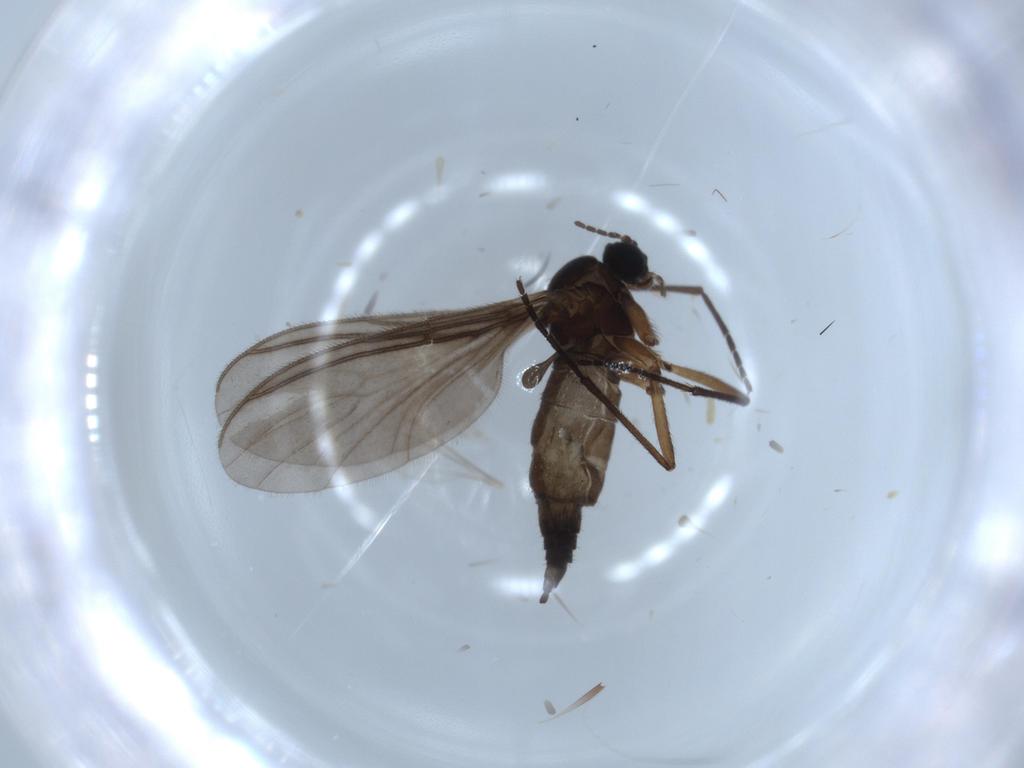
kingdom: Animalia
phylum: Arthropoda
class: Insecta
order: Diptera
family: Sciaridae
